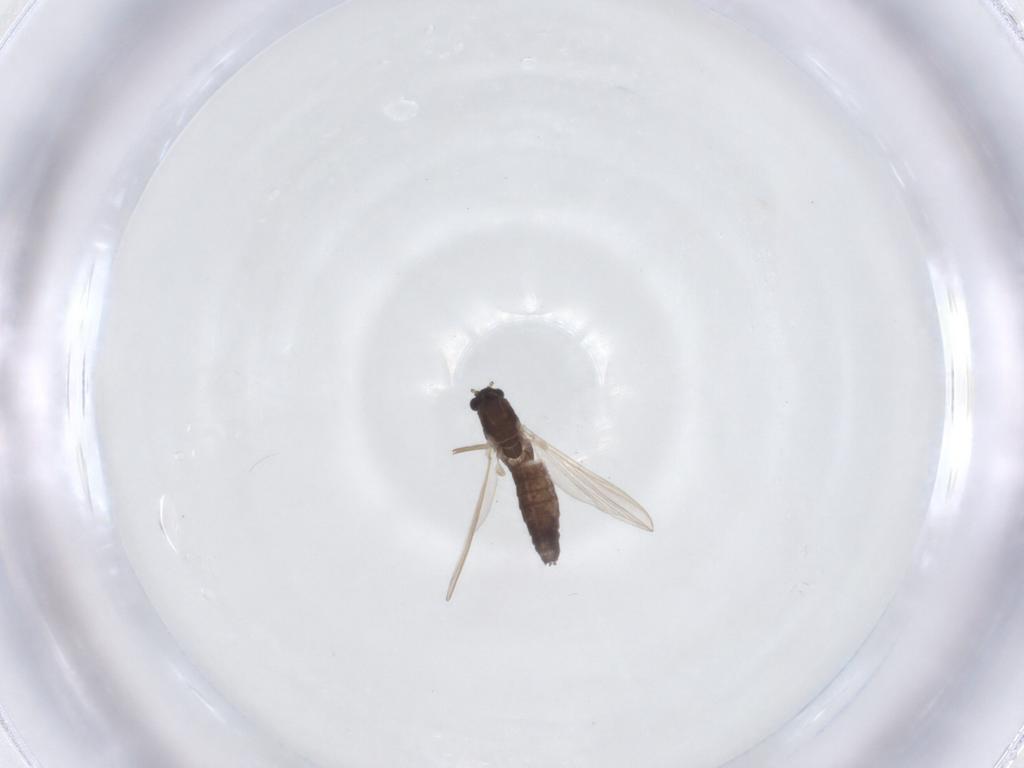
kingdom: Animalia
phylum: Arthropoda
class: Insecta
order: Diptera
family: Chironomidae
